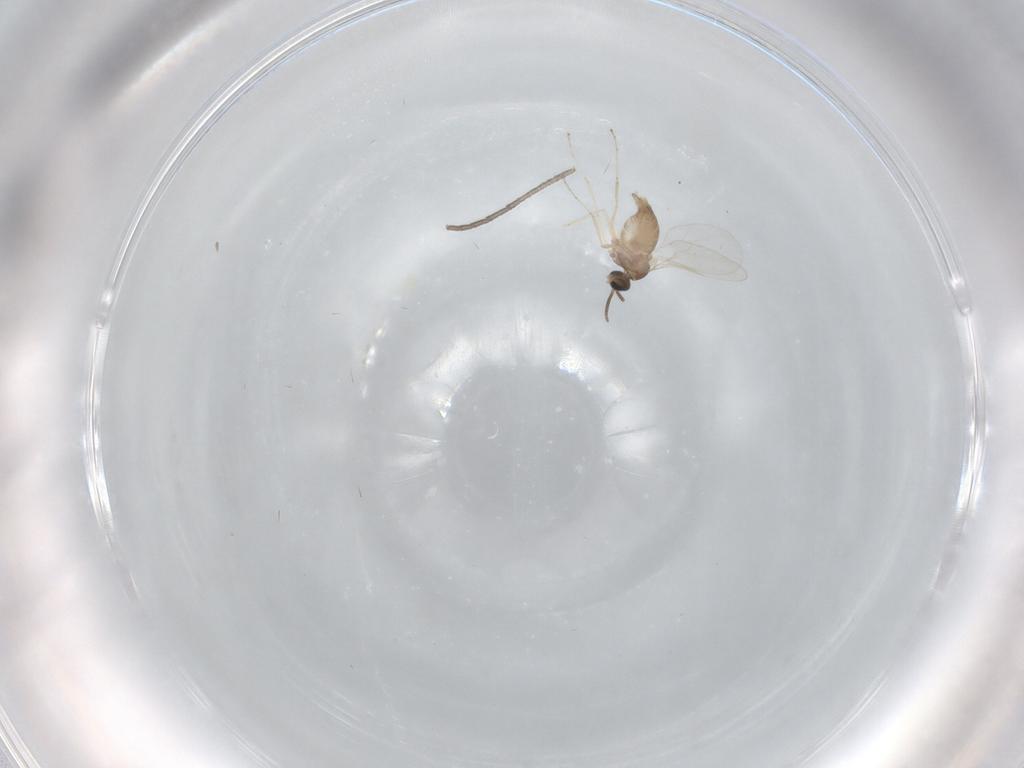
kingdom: Animalia
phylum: Arthropoda
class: Insecta
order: Diptera
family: Cecidomyiidae
